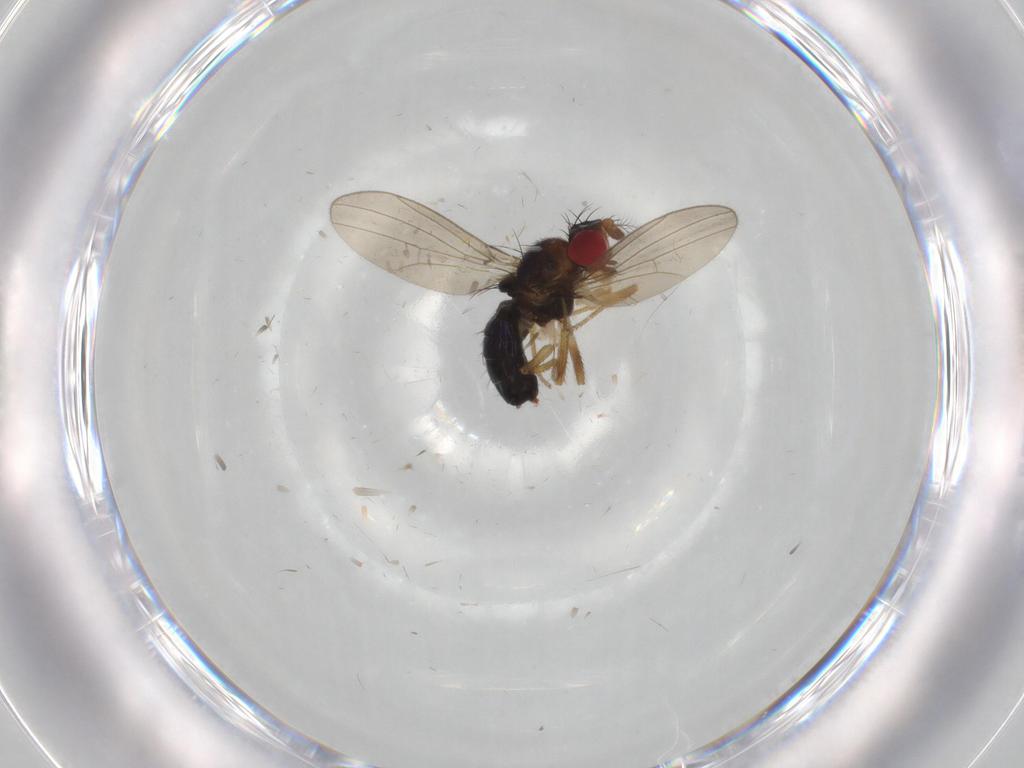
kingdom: Animalia
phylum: Arthropoda
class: Insecta
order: Diptera
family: Drosophilidae
